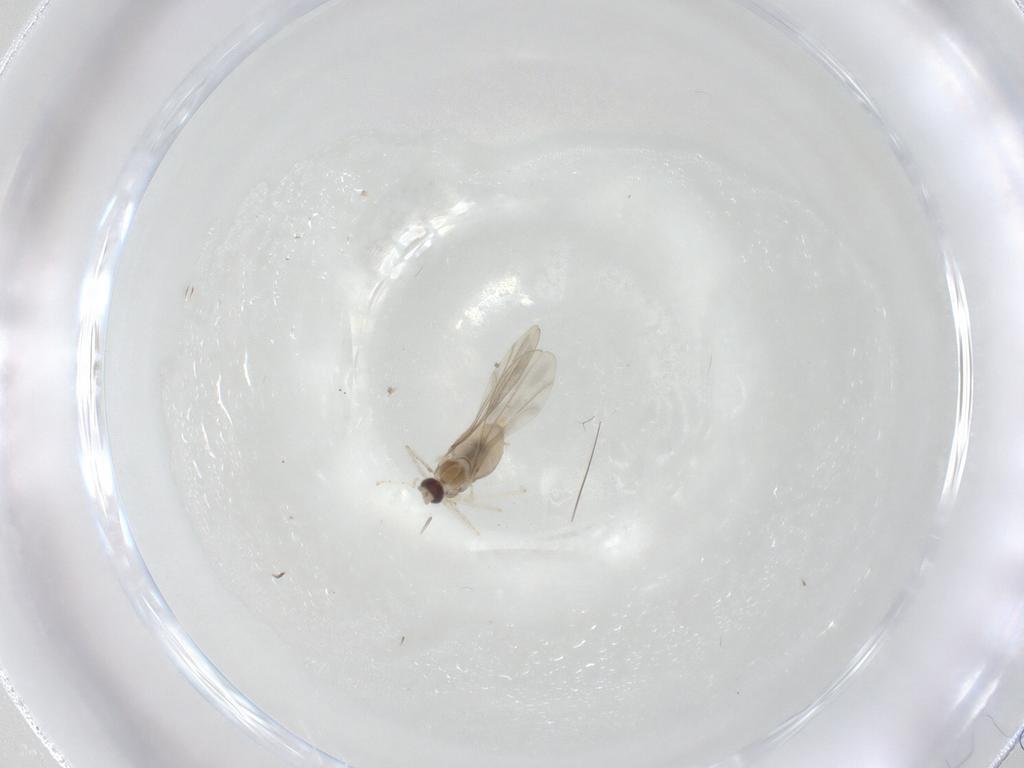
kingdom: Animalia
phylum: Arthropoda
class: Insecta
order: Diptera
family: Cecidomyiidae
